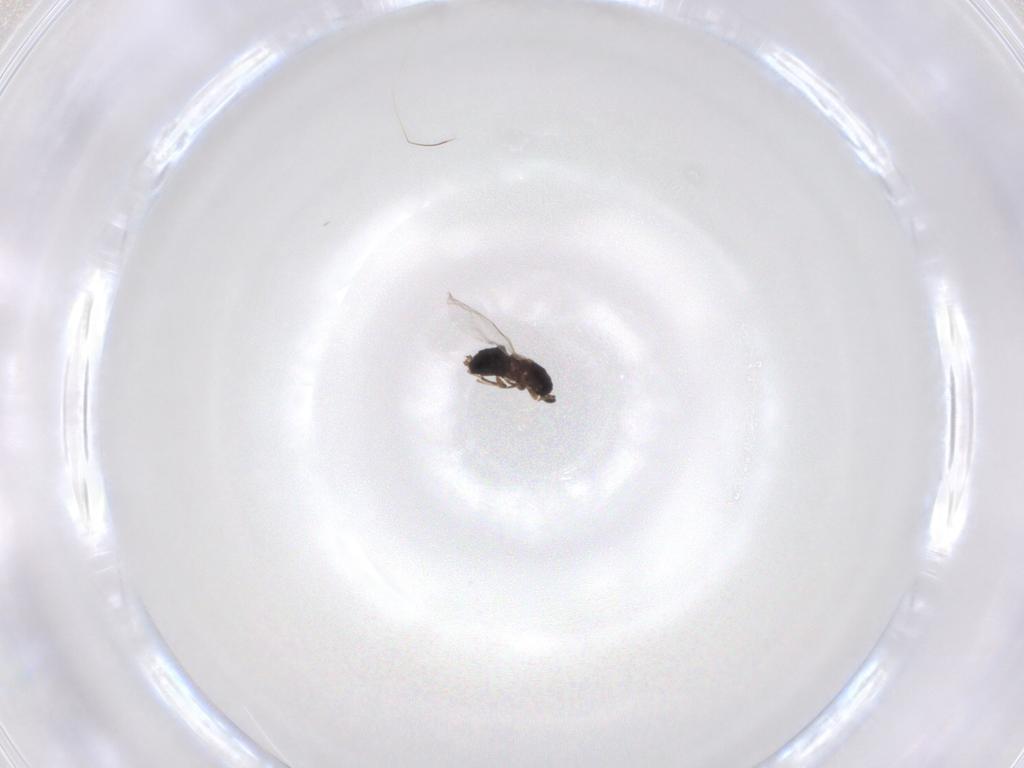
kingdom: Animalia
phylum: Arthropoda
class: Insecta
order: Diptera
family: Scatopsidae
